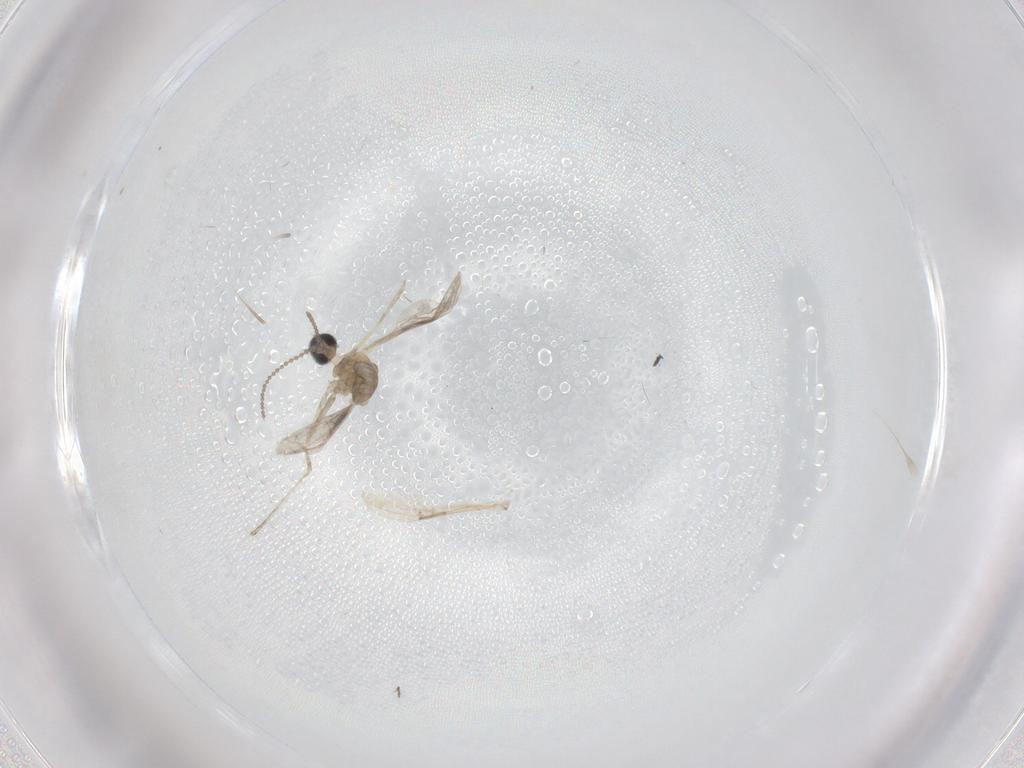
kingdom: Animalia
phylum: Arthropoda
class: Insecta
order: Diptera
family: Cecidomyiidae
